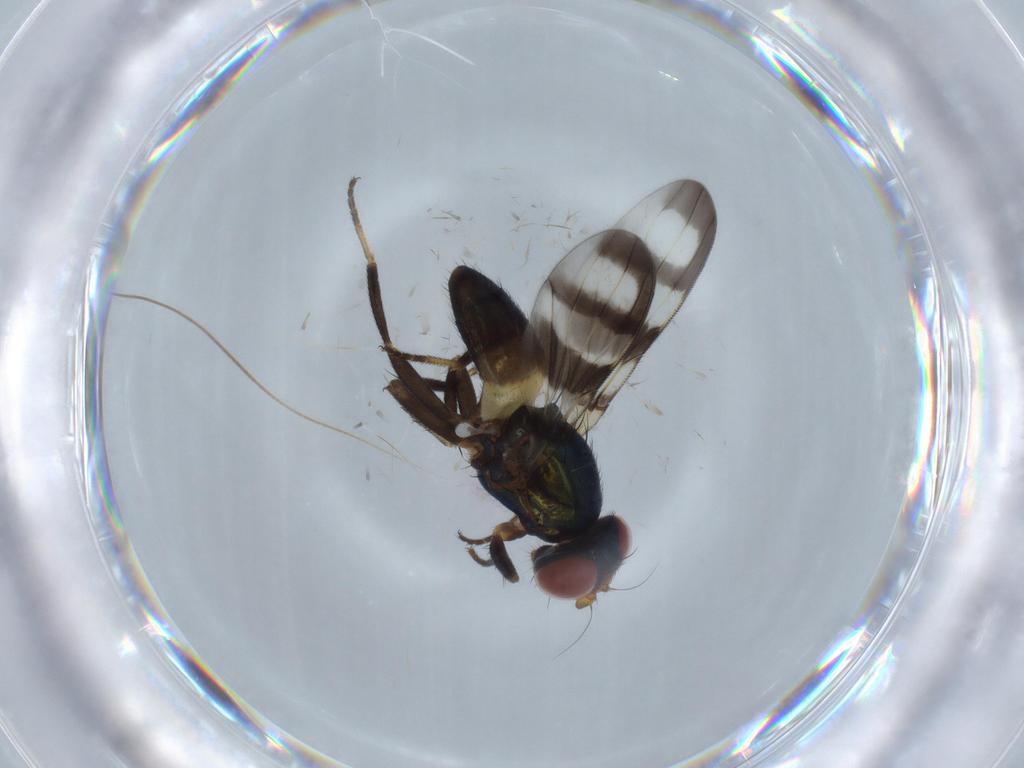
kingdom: Animalia
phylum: Arthropoda
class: Insecta
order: Diptera
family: Ulidiidae
